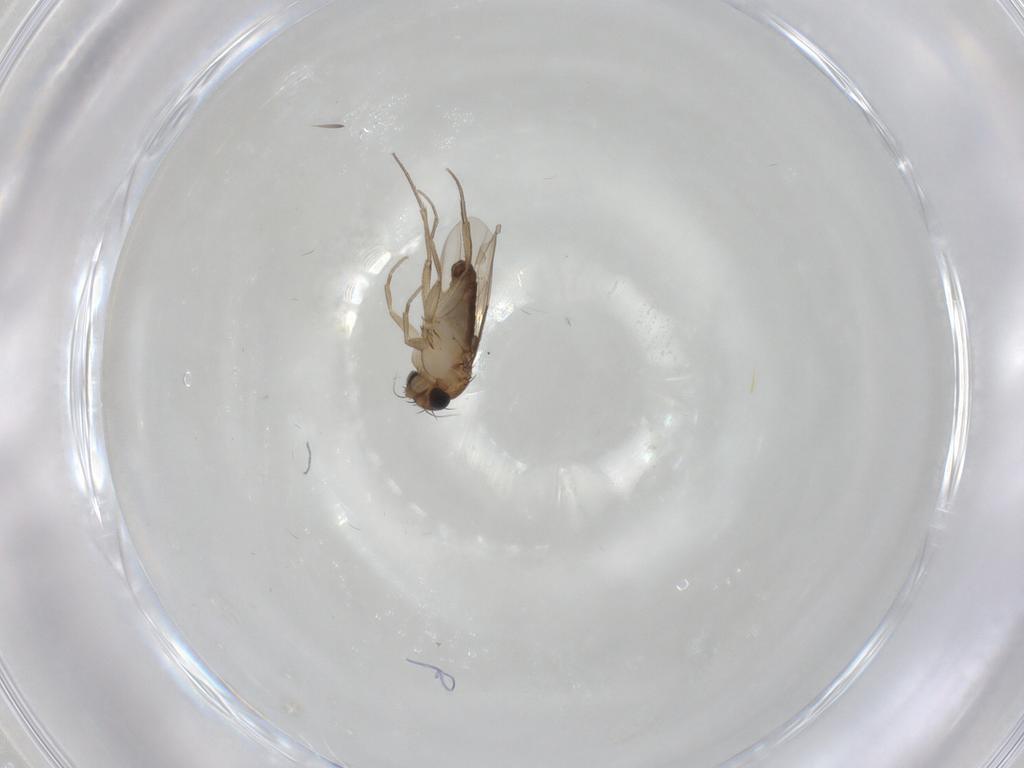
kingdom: Animalia
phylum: Arthropoda
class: Insecta
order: Diptera
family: Phoridae
